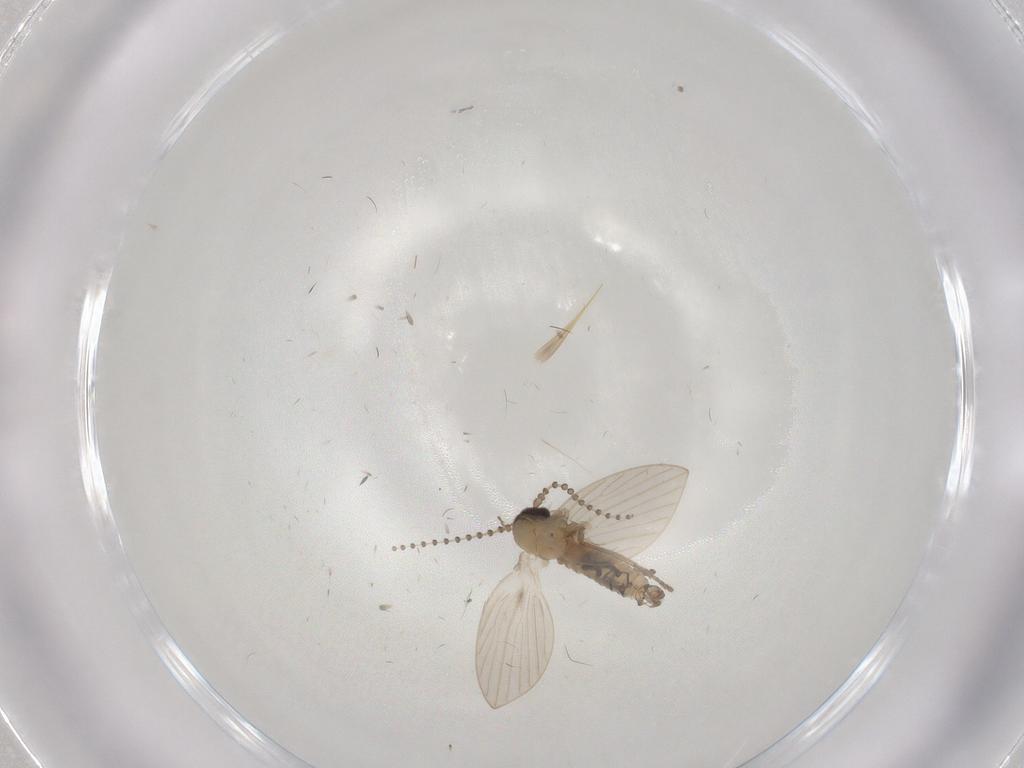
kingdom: Animalia
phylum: Arthropoda
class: Insecta
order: Diptera
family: Cecidomyiidae
